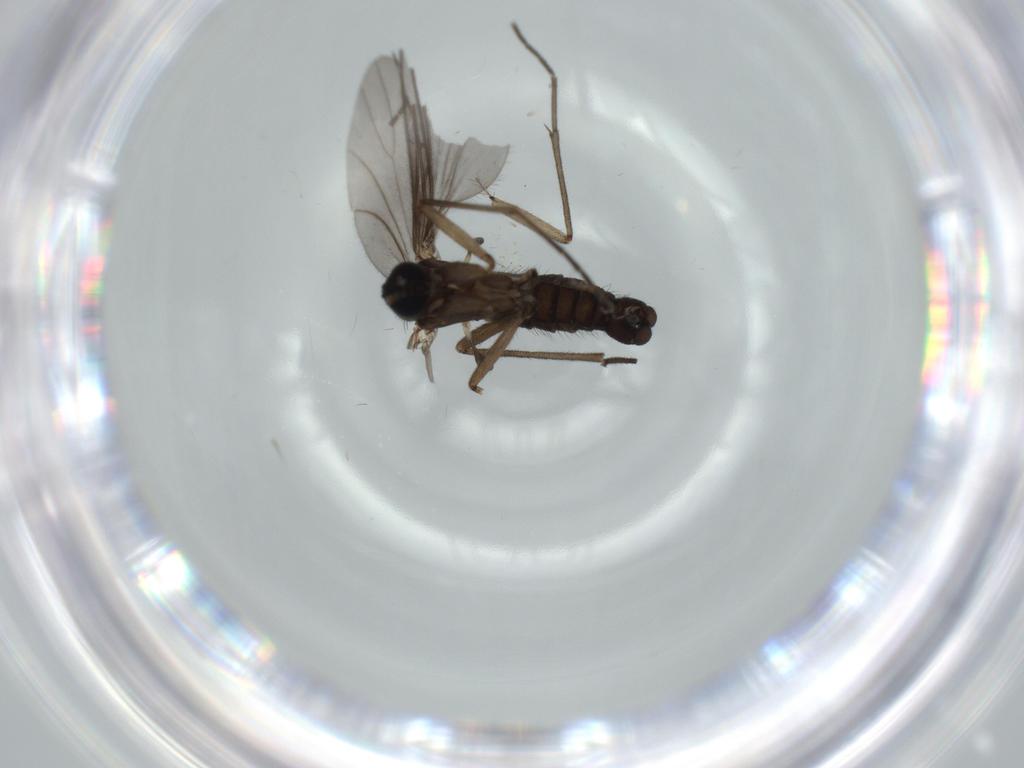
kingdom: Animalia
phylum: Arthropoda
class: Insecta
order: Diptera
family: Sciaridae
